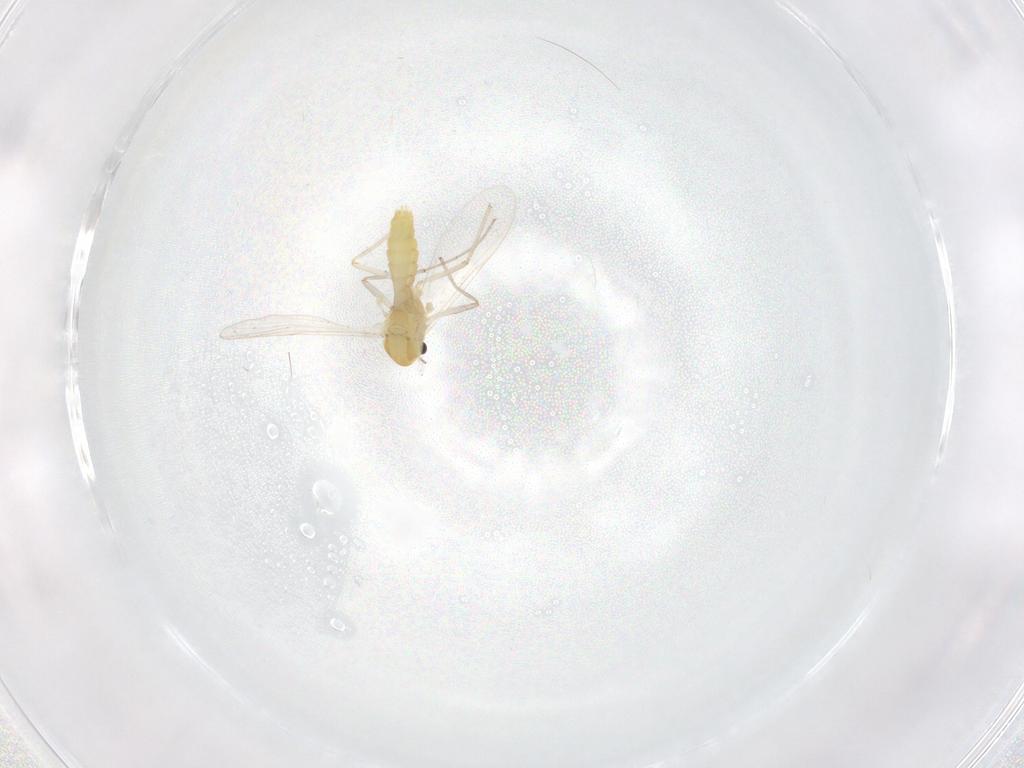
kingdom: Animalia
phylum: Arthropoda
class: Insecta
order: Diptera
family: Chironomidae
